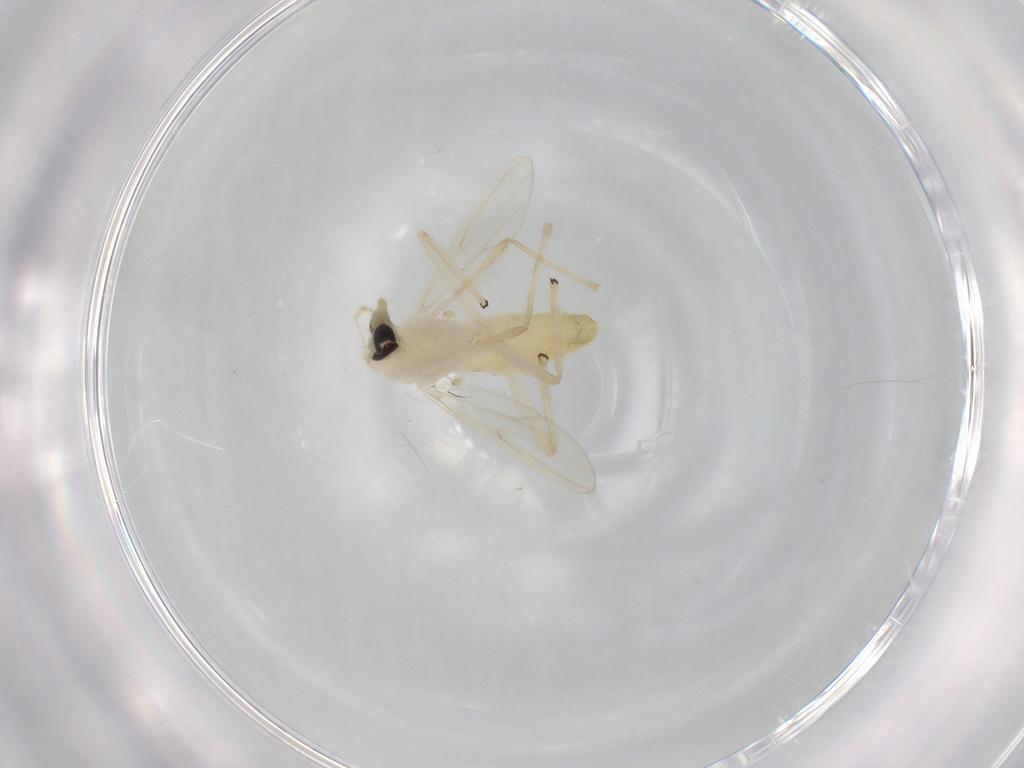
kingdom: Animalia
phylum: Arthropoda
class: Insecta
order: Diptera
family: Chironomidae
